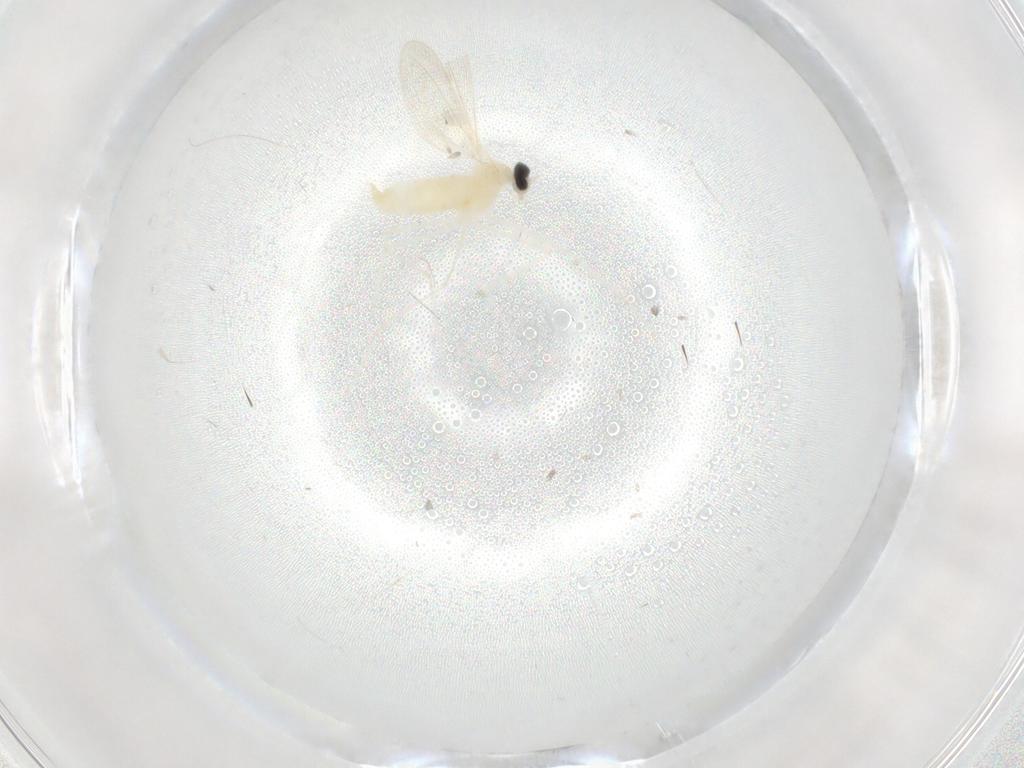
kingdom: Animalia
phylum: Arthropoda
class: Insecta
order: Diptera
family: Cecidomyiidae
